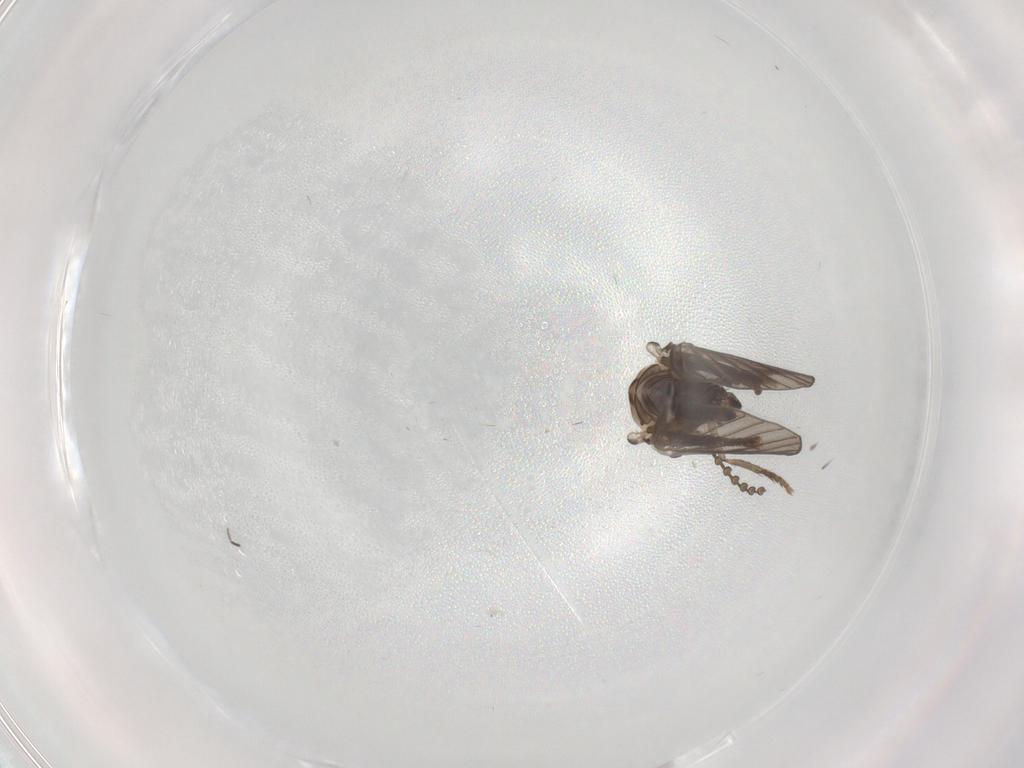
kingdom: Animalia
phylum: Arthropoda
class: Insecta
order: Diptera
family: Psychodidae
